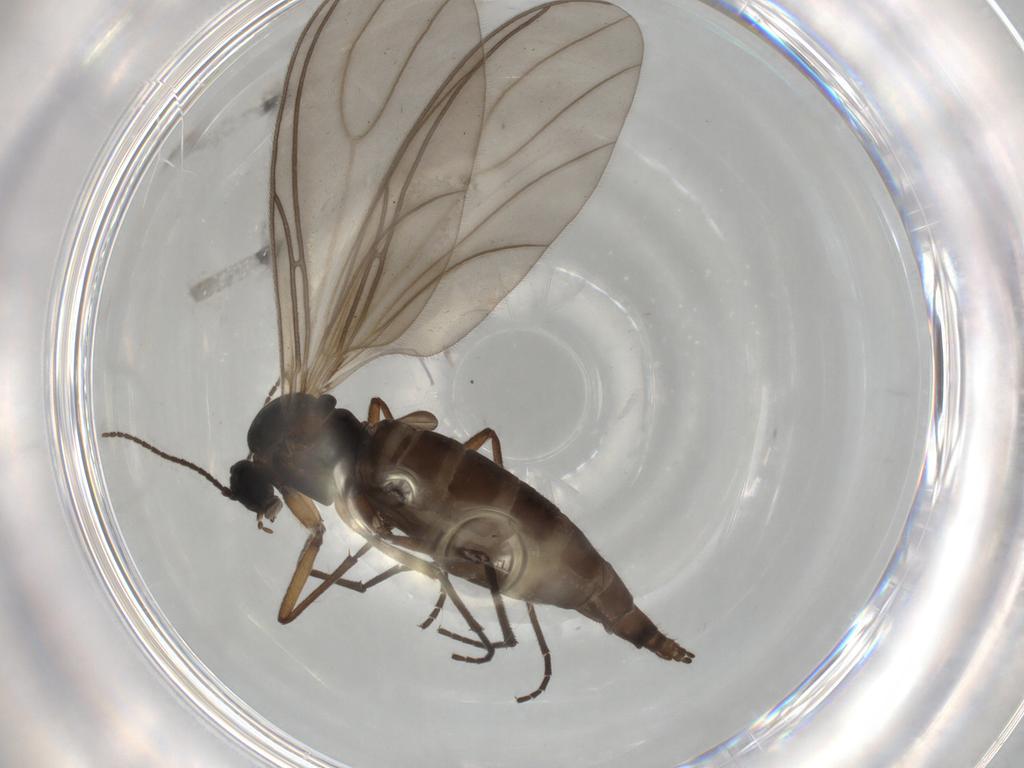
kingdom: Animalia
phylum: Arthropoda
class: Insecta
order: Diptera
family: Sciaridae
